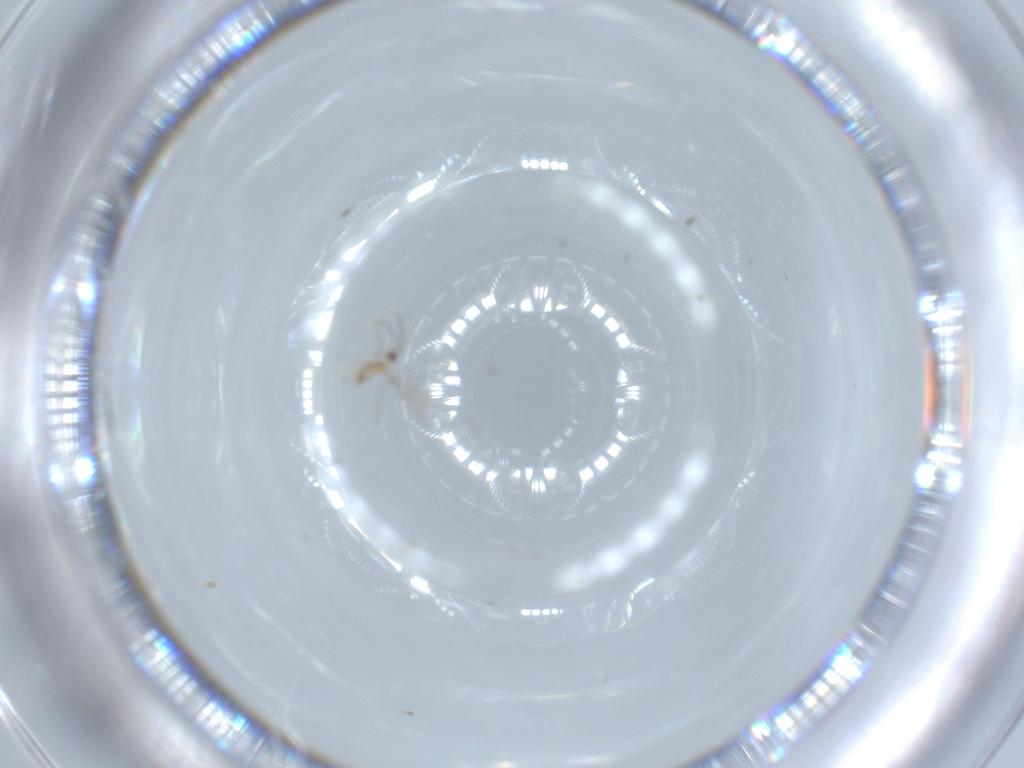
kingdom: Animalia
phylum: Arthropoda
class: Insecta
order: Hymenoptera
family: Mymaridae
